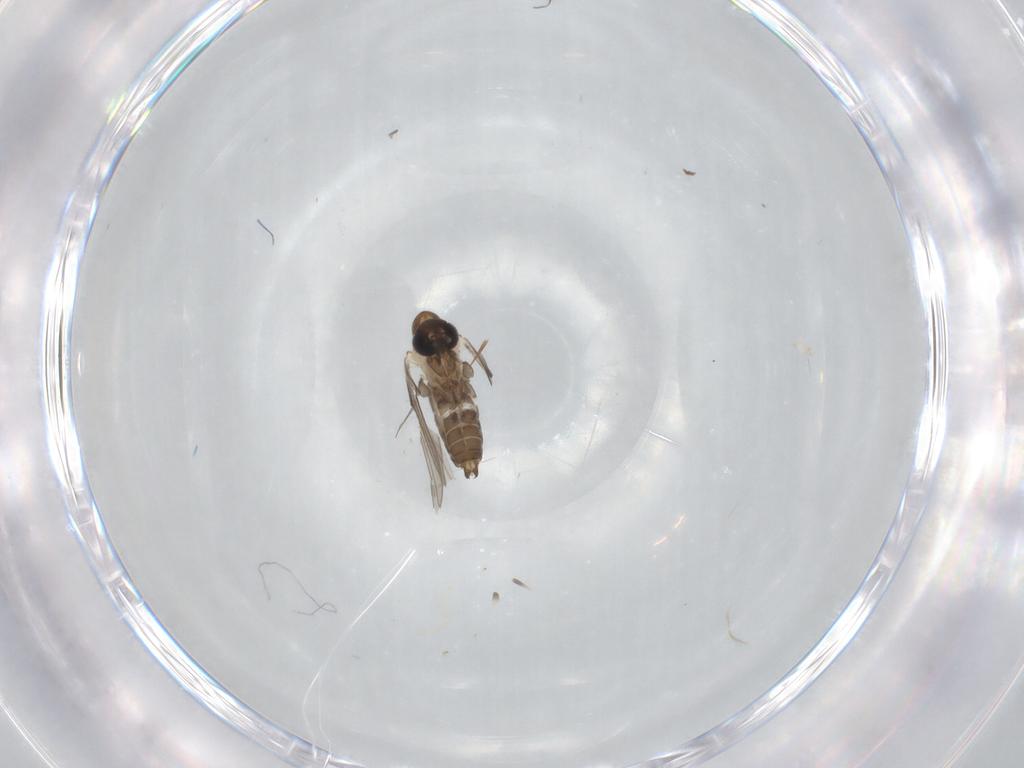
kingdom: Animalia
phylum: Arthropoda
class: Insecta
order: Diptera
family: Psychodidae
